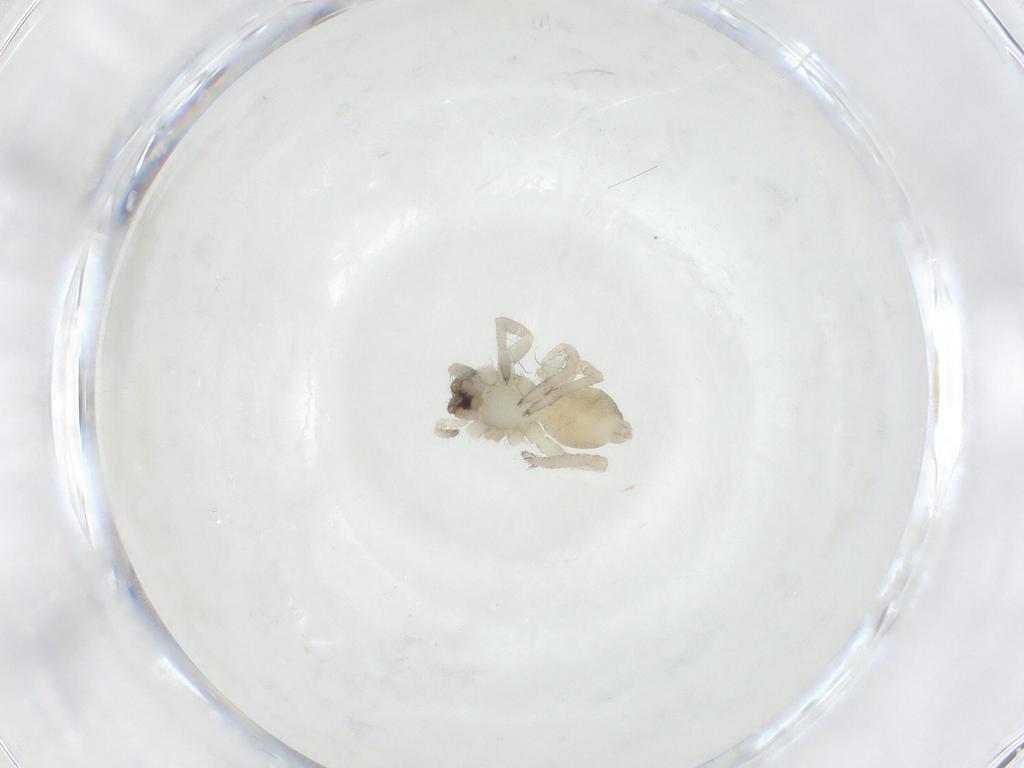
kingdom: Animalia
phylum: Arthropoda
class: Arachnida
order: Araneae
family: Anyphaenidae
